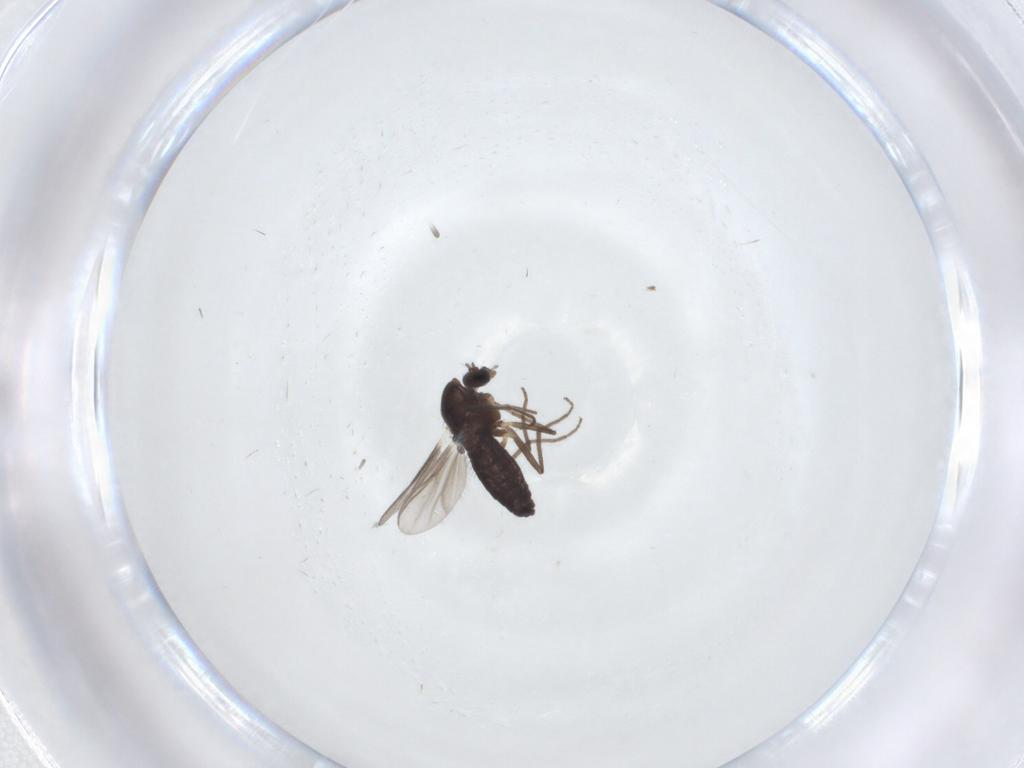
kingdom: Animalia
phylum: Arthropoda
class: Insecta
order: Diptera
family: Chironomidae
